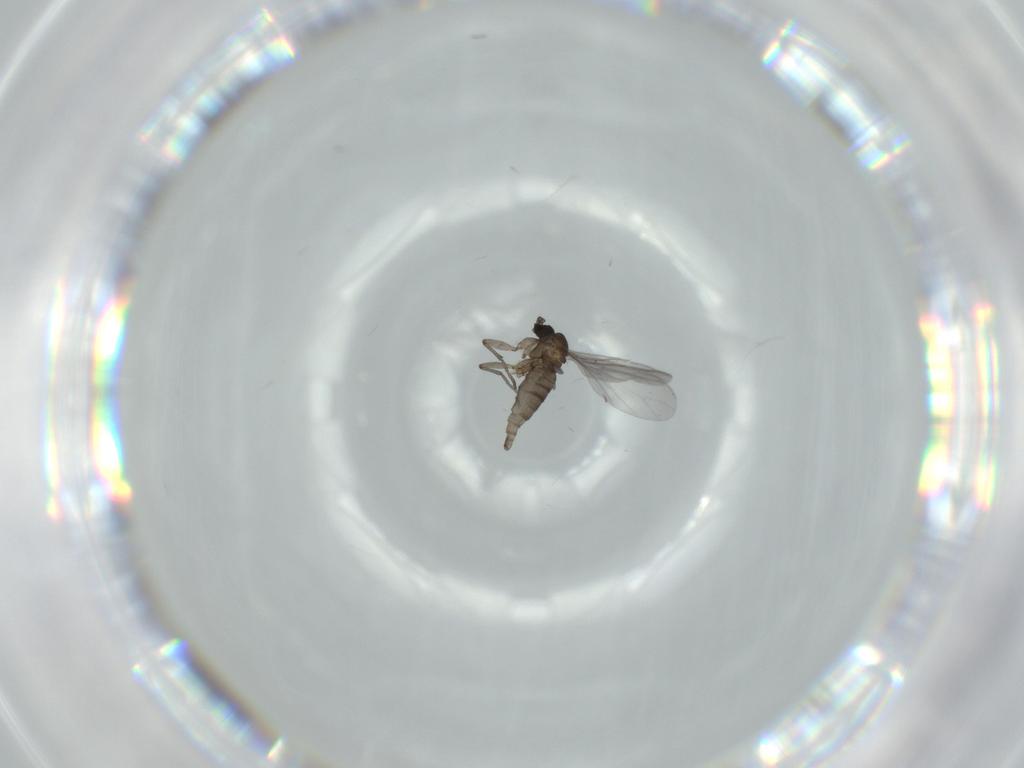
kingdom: Animalia
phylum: Arthropoda
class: Insecta
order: Diptera
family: Sciaridae
